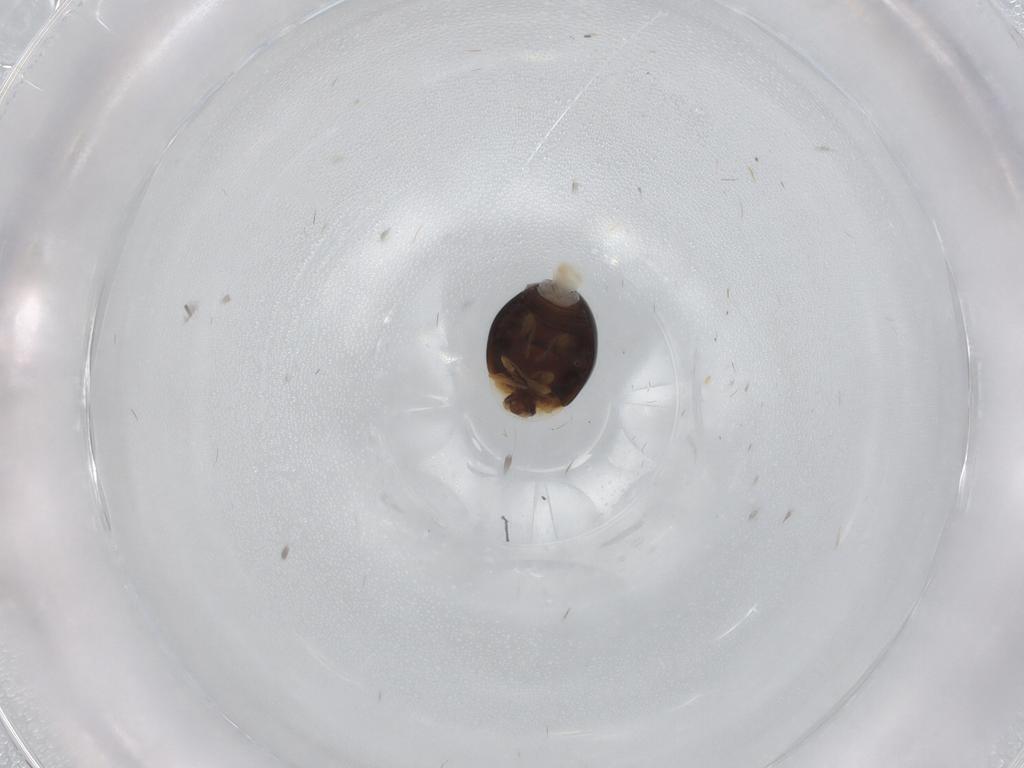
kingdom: Animalia
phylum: Arthropoda
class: Insecta
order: Coleoptera
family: Corylophidae
